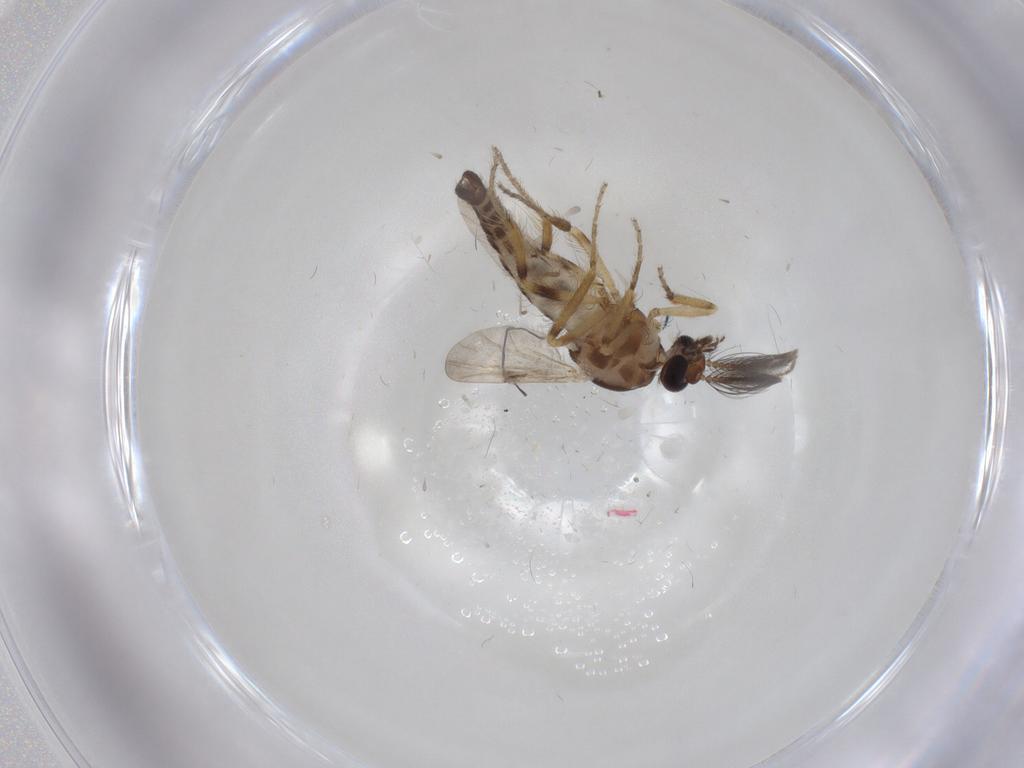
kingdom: Animalia
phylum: Arthropoda
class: Insecta
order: Diptera
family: Ceratopogonidae
